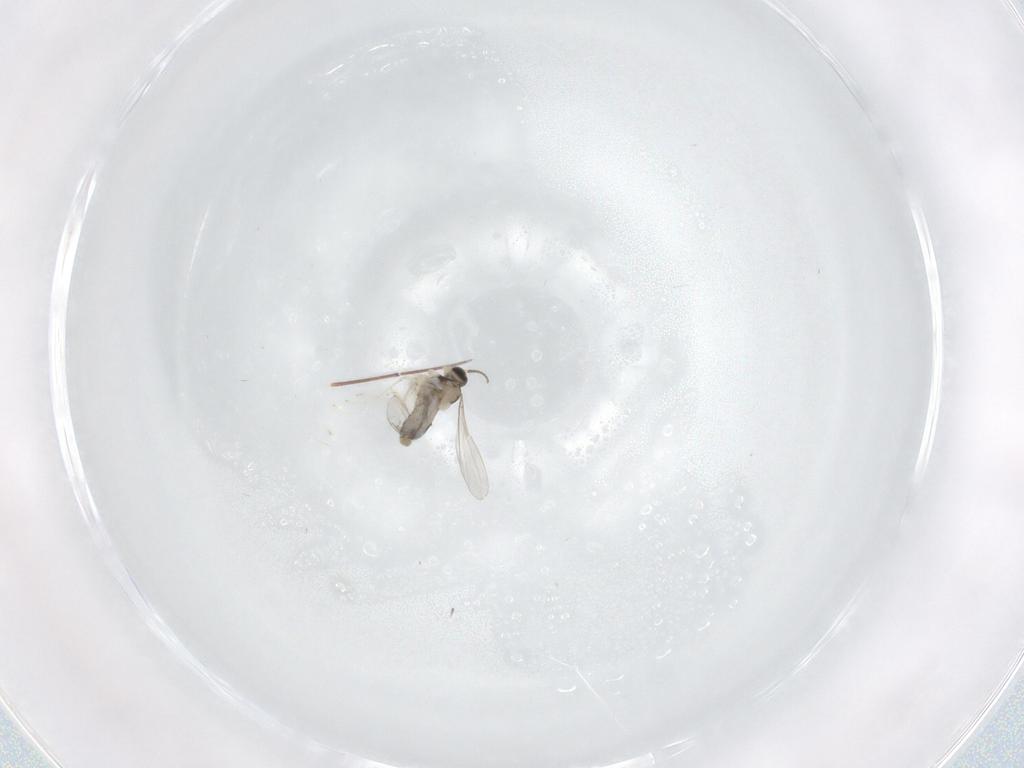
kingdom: Animalia
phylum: Arthropoda
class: Insecta
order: Diptera
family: Cecidomyiidae
